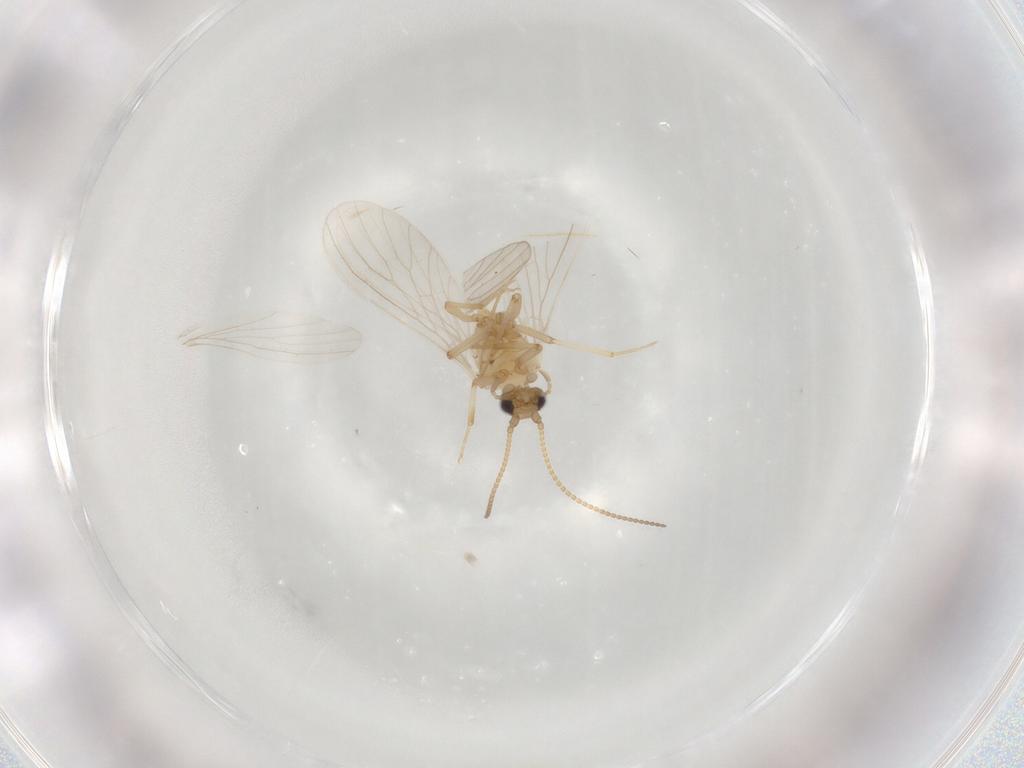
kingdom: Animalia
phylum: Arthropoda
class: Insecta
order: Neuroptera
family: Coniopterygidae
